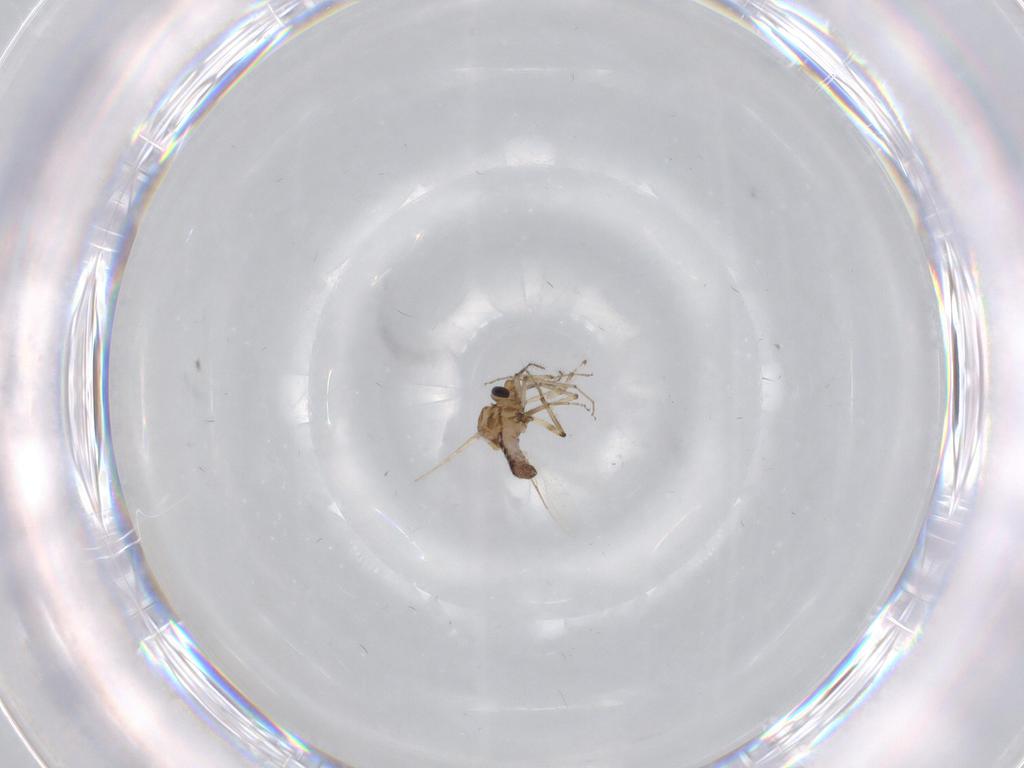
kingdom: Animalia
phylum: Arthropoda
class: Insecta
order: Diptera
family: Ceratopogonidae
